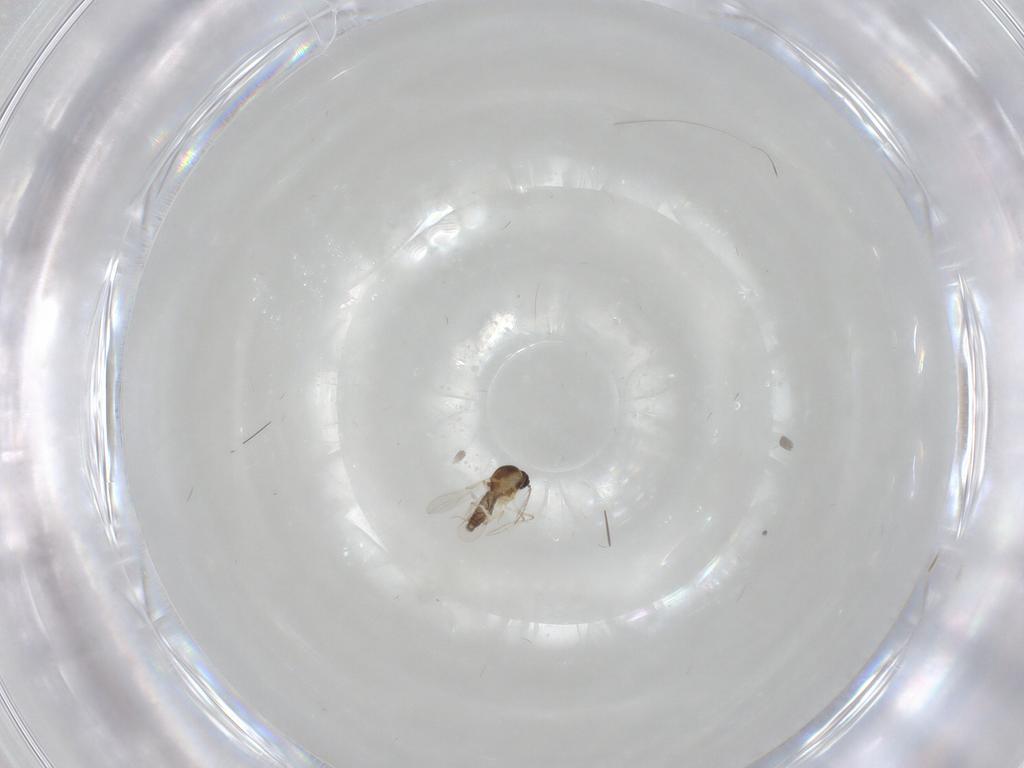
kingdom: Animalia
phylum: Arthropoda
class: Insecta
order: Diptera
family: Ceratopogonidae
